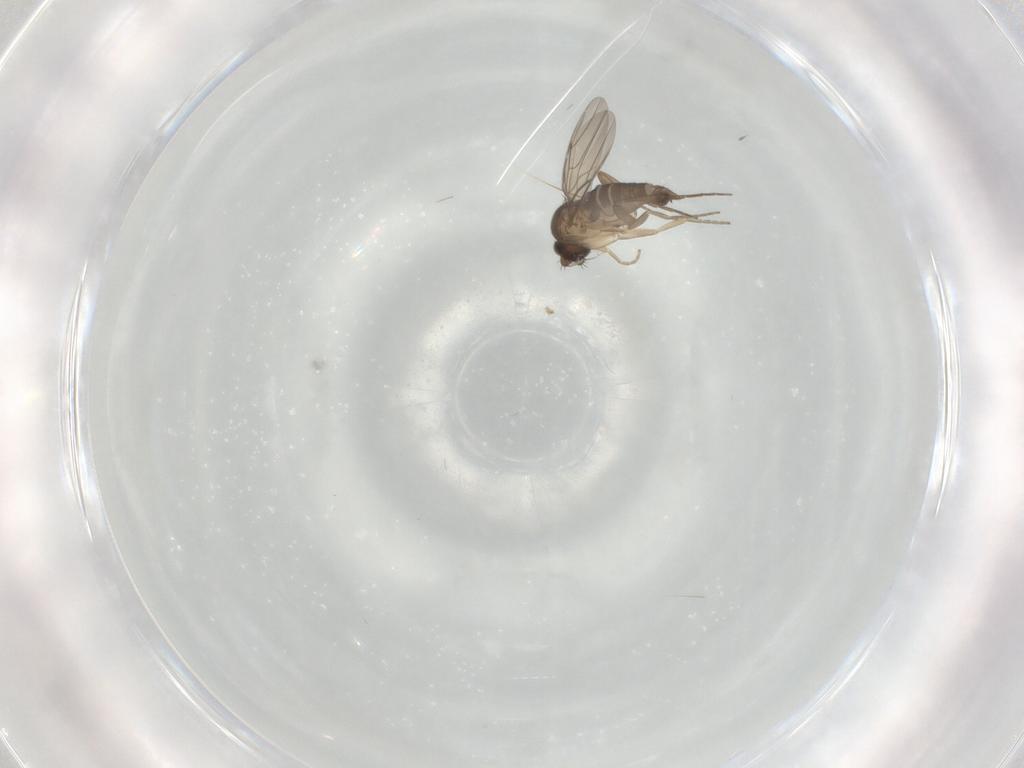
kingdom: Animalia
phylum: Arthropoda
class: Insecta
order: Diptera
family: Phoridae
